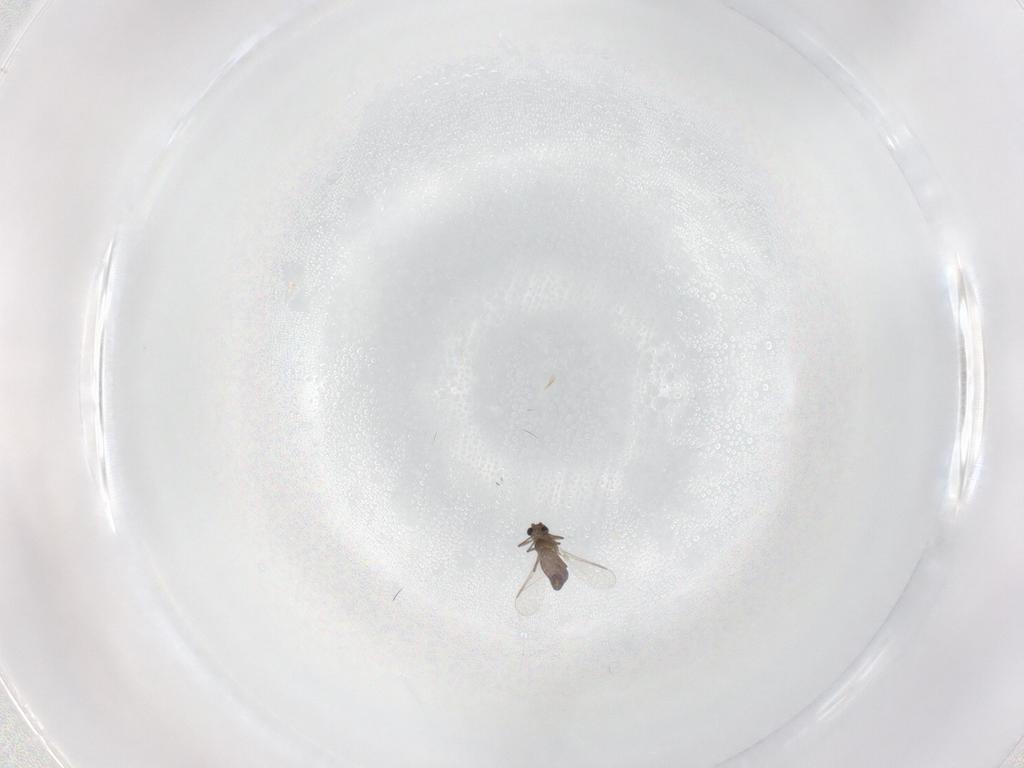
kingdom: Animalia
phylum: Arthropoda
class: Insecta
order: Diptera
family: Chironomidae
